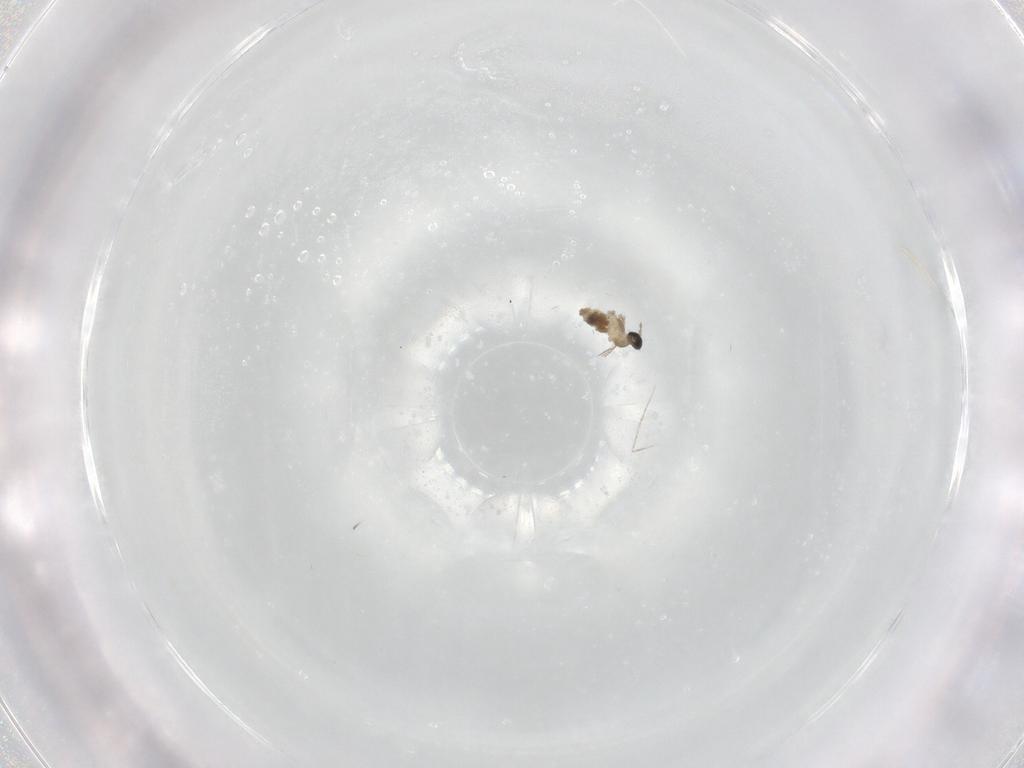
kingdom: Animalia
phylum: Arthropoda
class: Insecta
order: Diptera
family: Cecidomyiidae
